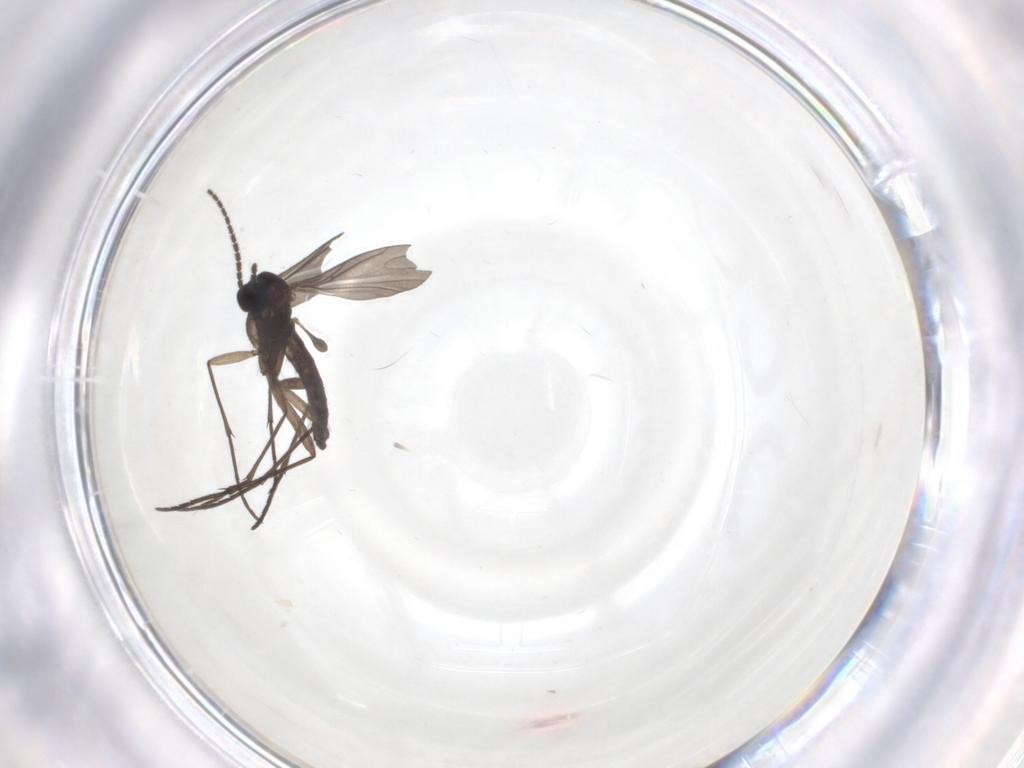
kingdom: Animalia
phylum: Arthropoda
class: Insecta
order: Diptera
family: Sciaridae
